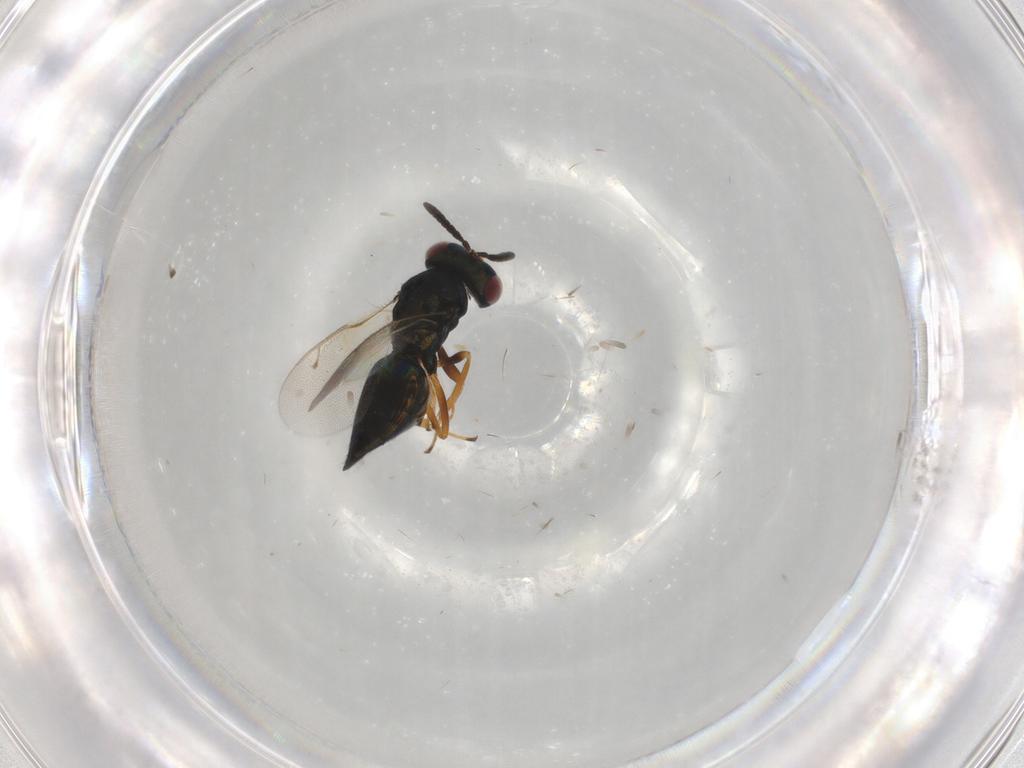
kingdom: Animalia
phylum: Arthropoda
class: Insecta
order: Hymenoptera
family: Pteromalidae
